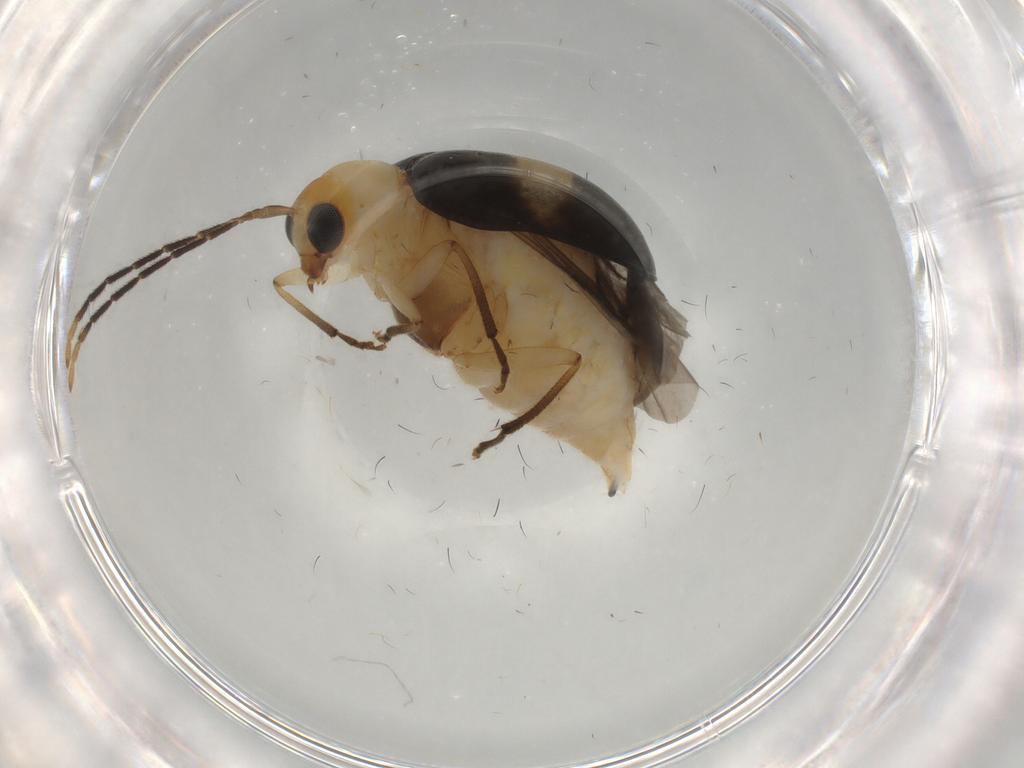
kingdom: Animalia
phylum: Arthropoda
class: Insecta
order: Coleoptera
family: Chrysomelidae
